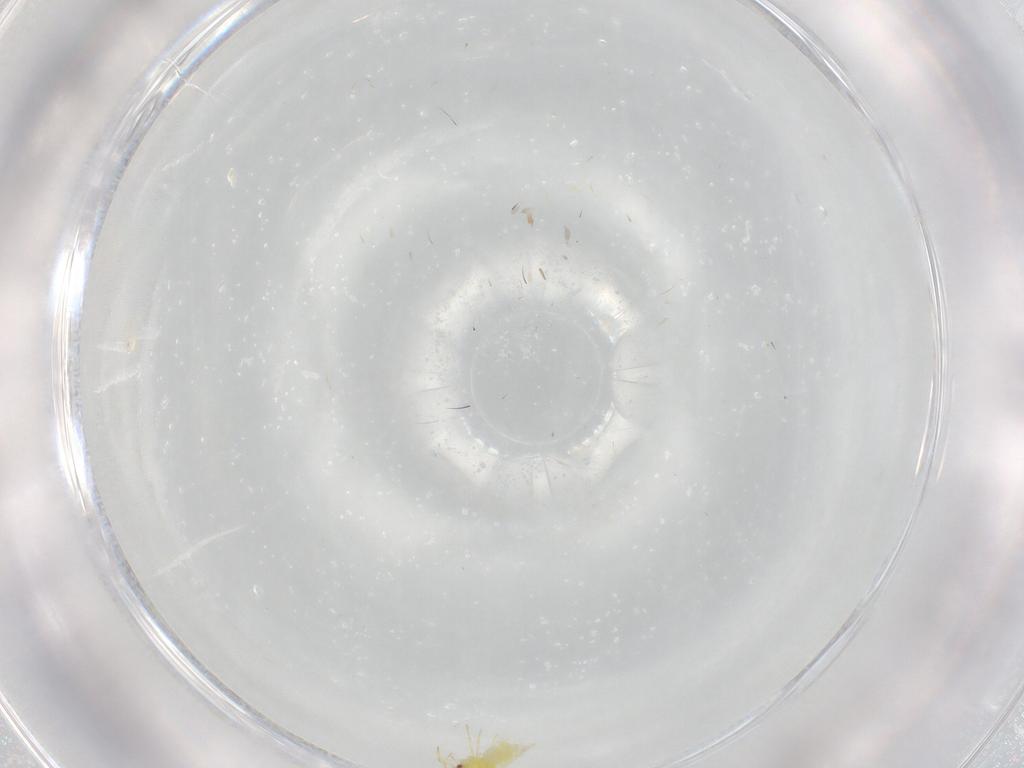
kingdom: Animalia
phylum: Arthropoda
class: Insecta
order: Hemiptera
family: Aleyrodidae
